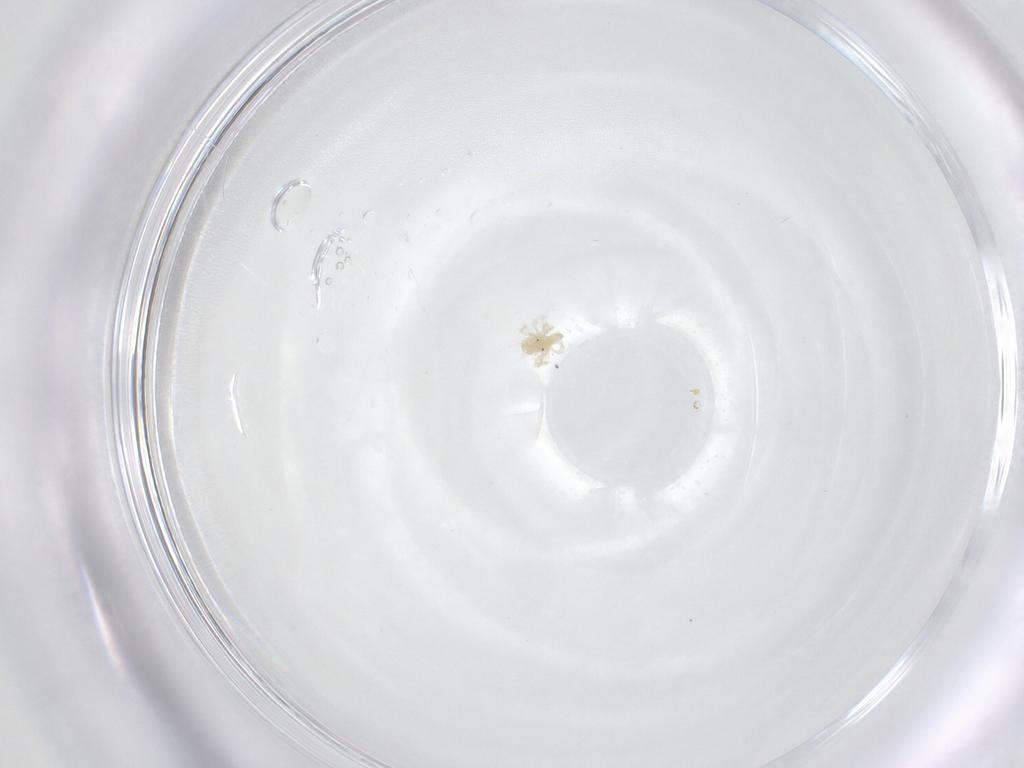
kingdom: Animalia
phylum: Arthropoda
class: Arachnida
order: Trombidiformes
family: Anystidae
